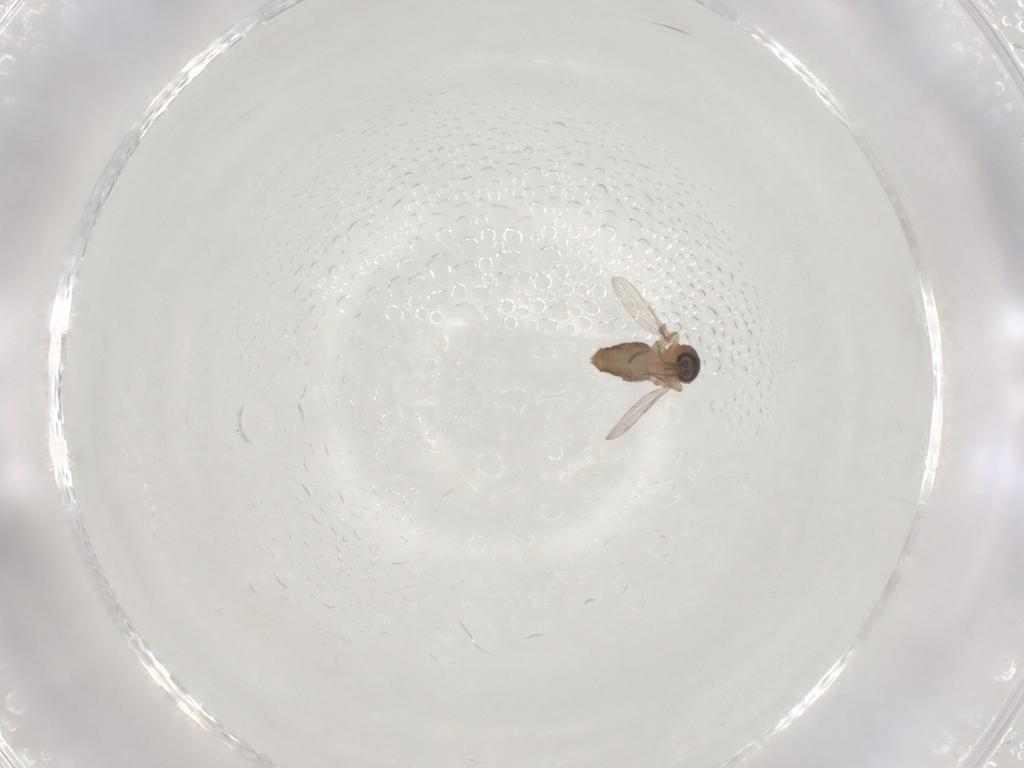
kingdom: Animalia
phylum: Arthropoda
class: Insecta
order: Diptera
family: Ceratopogonidae
